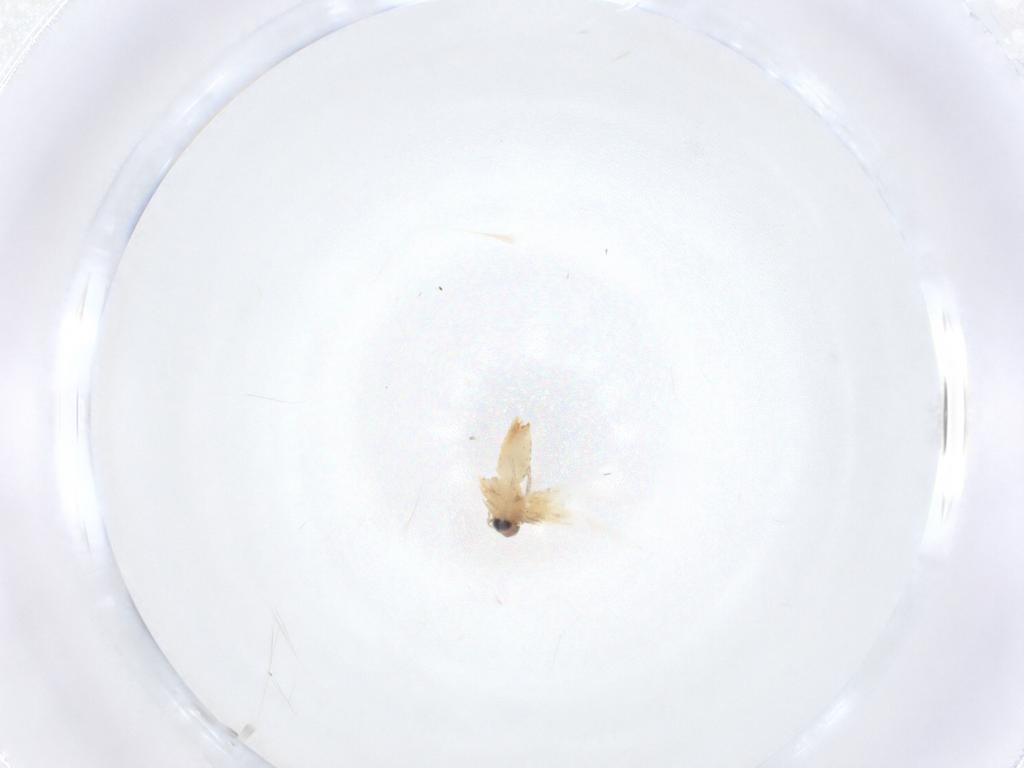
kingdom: Animalia
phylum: Arthropoda
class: Insecta
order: Lepidoptera
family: Crambidae
